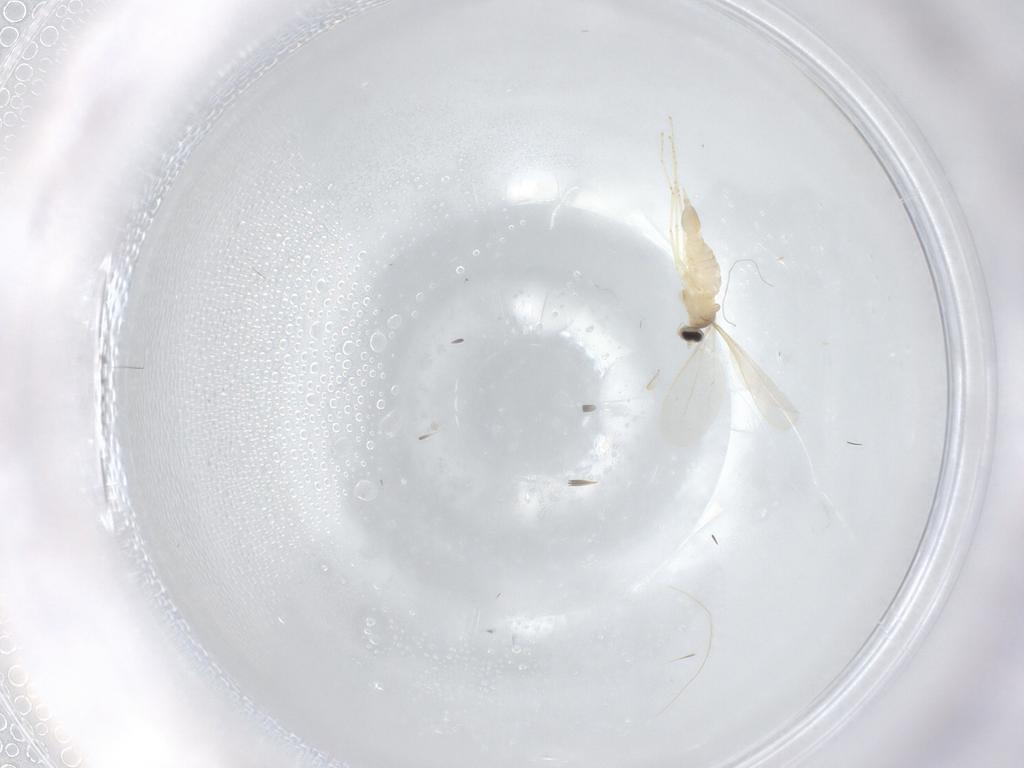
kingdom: Animalia
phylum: Arthropoda
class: Insecta
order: Diptera
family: Cecidomyiidae
